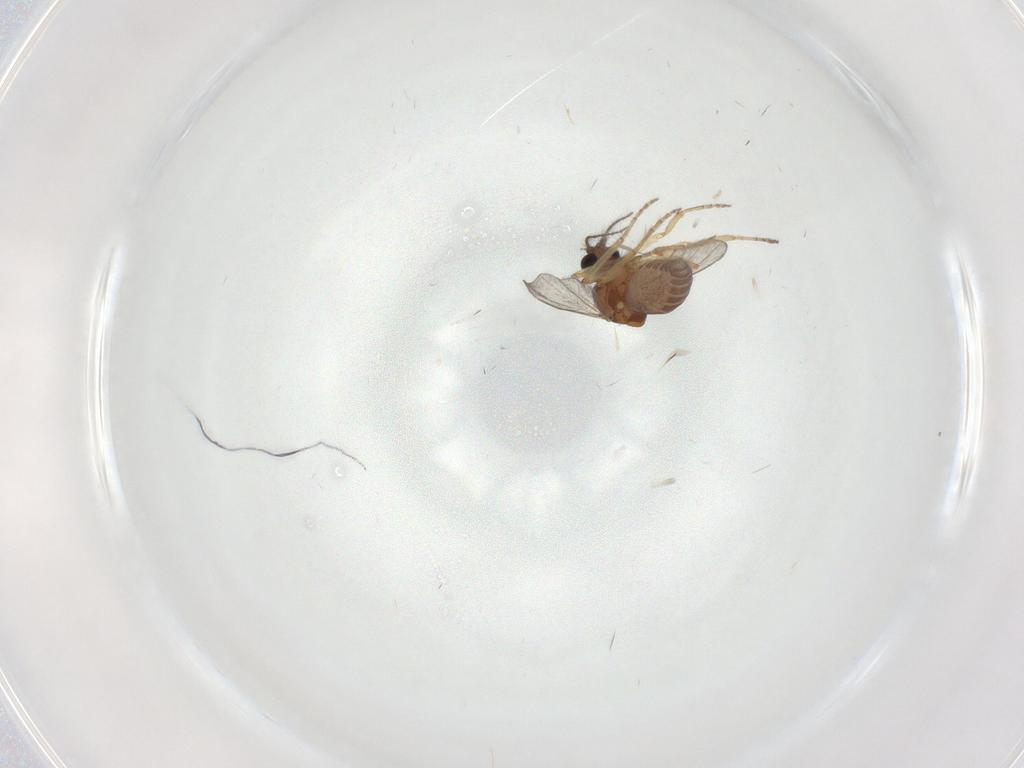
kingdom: Animalia
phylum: Arthropoda
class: Insecta
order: Diptera
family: Ceratopogonidae
